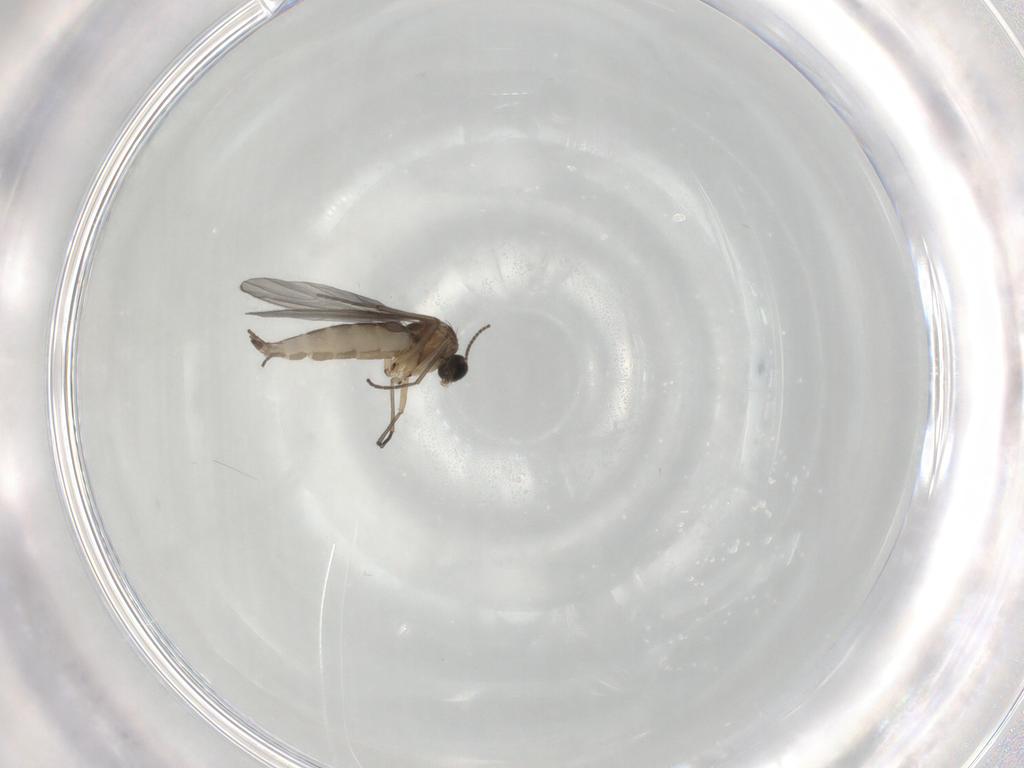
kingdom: Animalia
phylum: Arthropoda
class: Insecta
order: Diptera
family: Sciaridae
